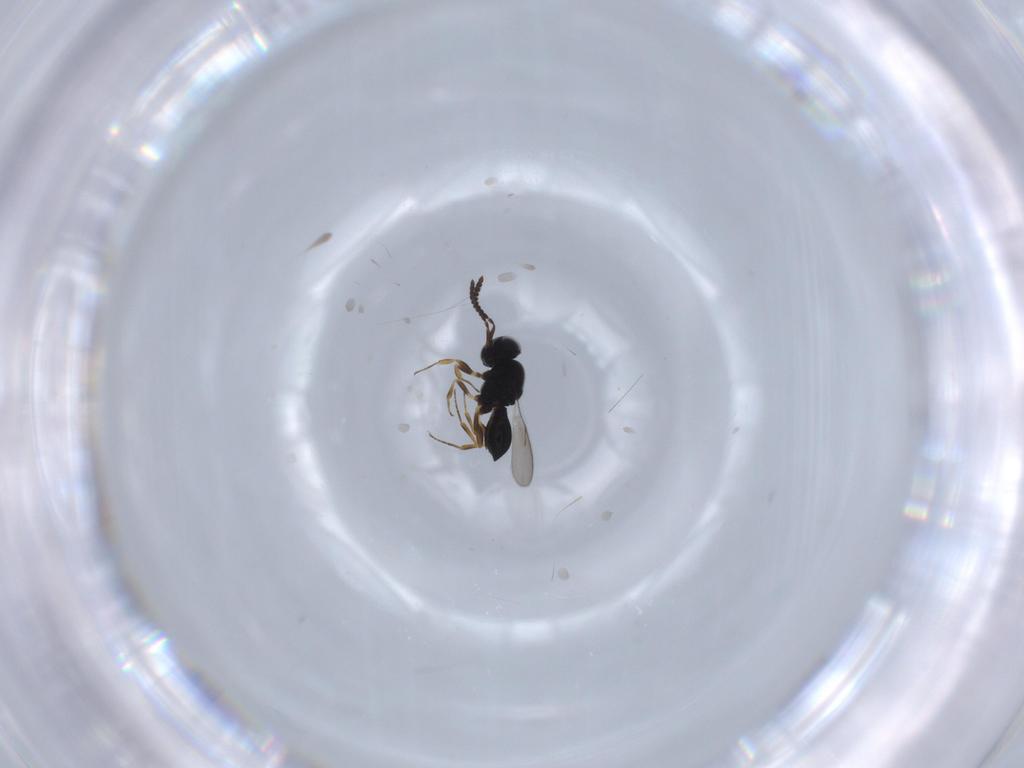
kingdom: Animalia
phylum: Arthropoda
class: Insecta
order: Hymenoptera
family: Scelionidae
